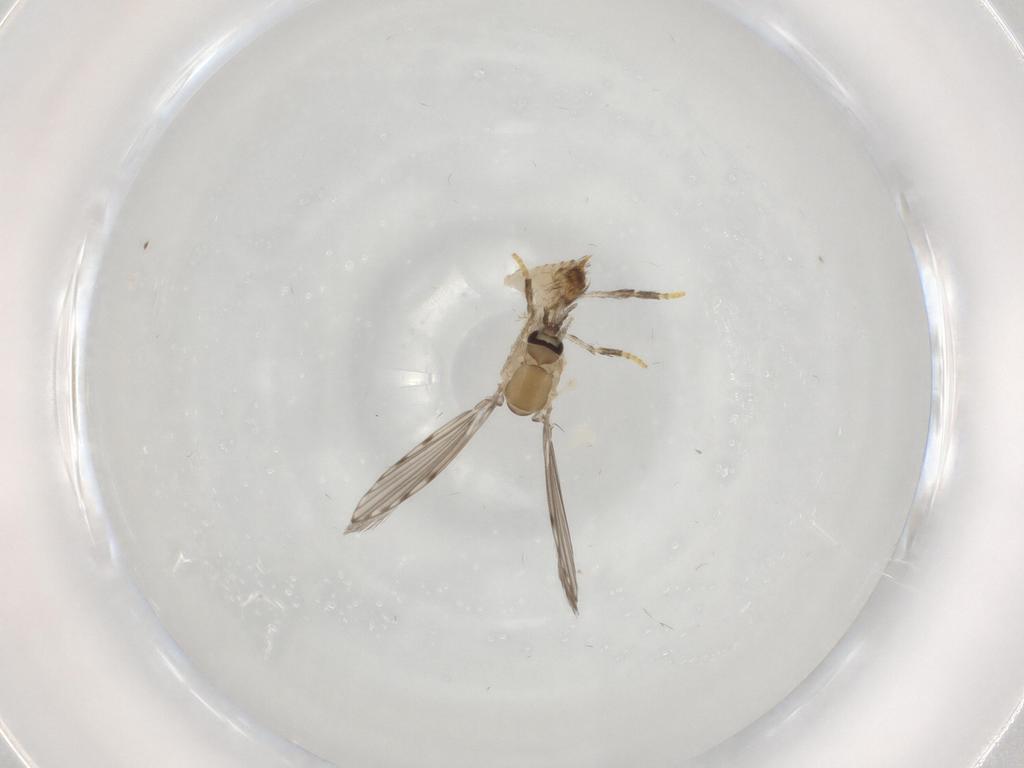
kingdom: Animalia
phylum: Arthropoda
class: Insecta
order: Diptera
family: Psychodidae
